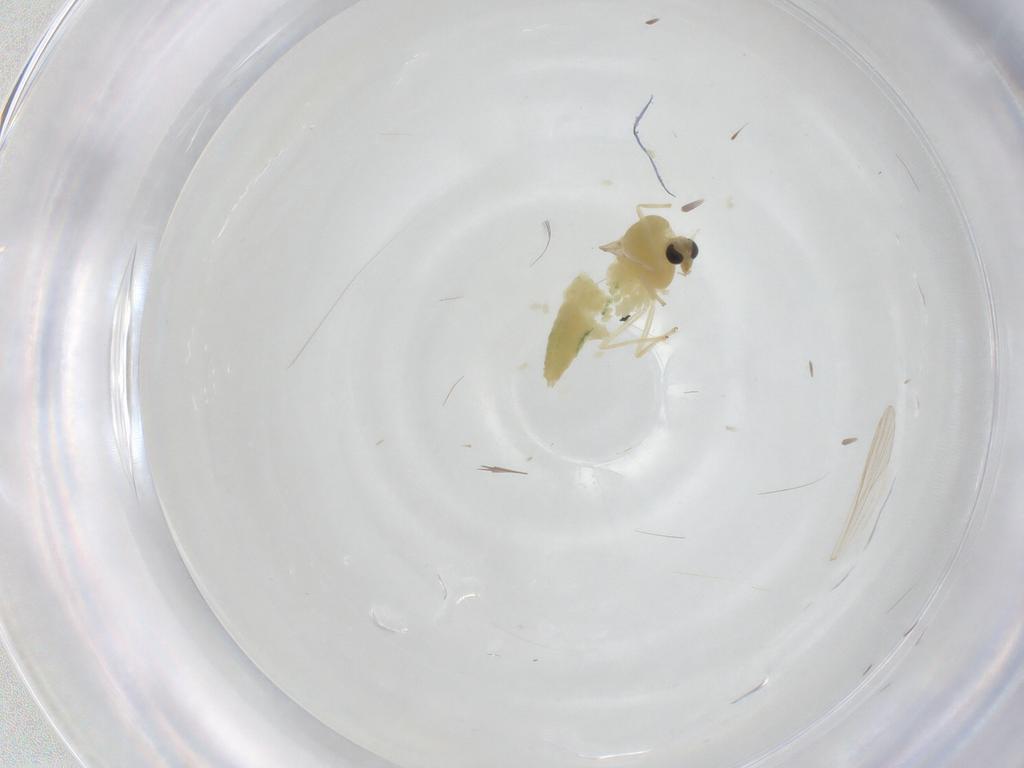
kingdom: Animalia
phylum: Arthropoda
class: Insecta
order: Diptera
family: Chironomidae
